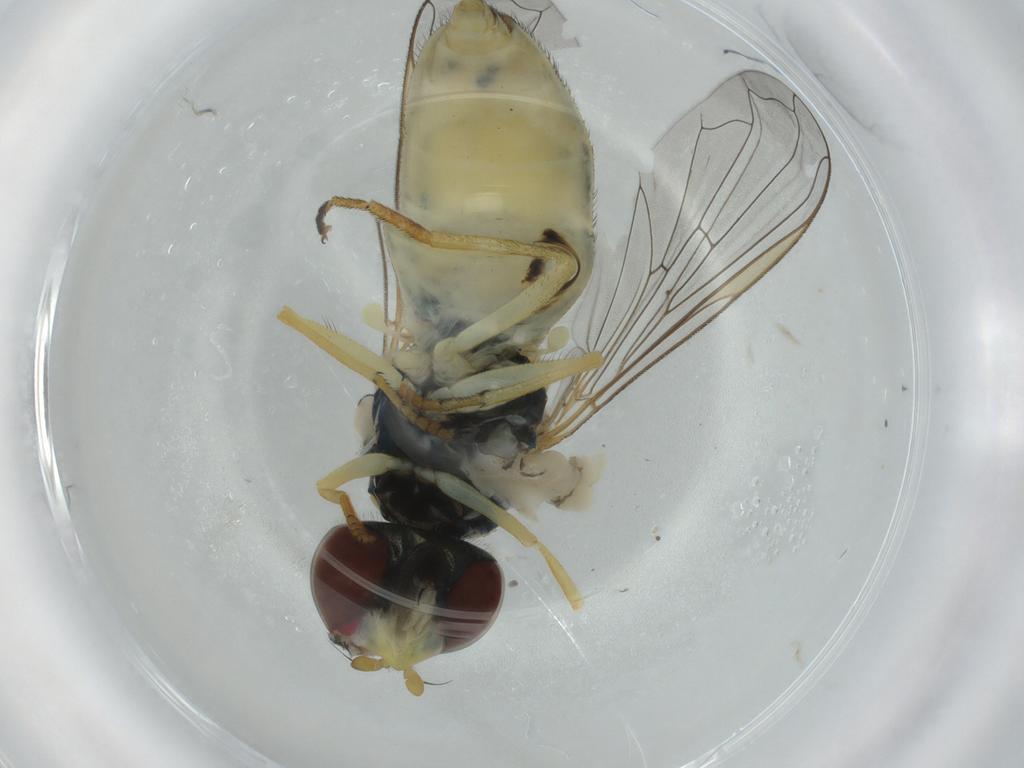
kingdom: Animalia
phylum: Arthropoda
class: Insecta
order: Diptera
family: Syrphidae
